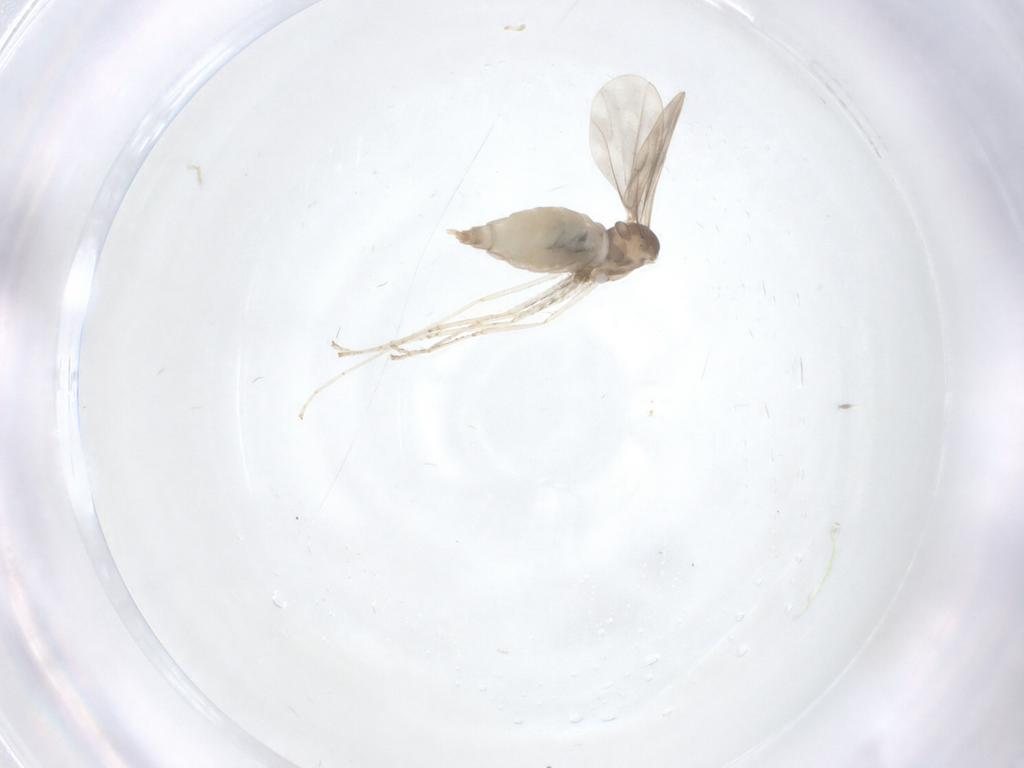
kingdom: Animalia
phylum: Arthropoda
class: Insecta
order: Diptera
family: Cecidomyiidae
